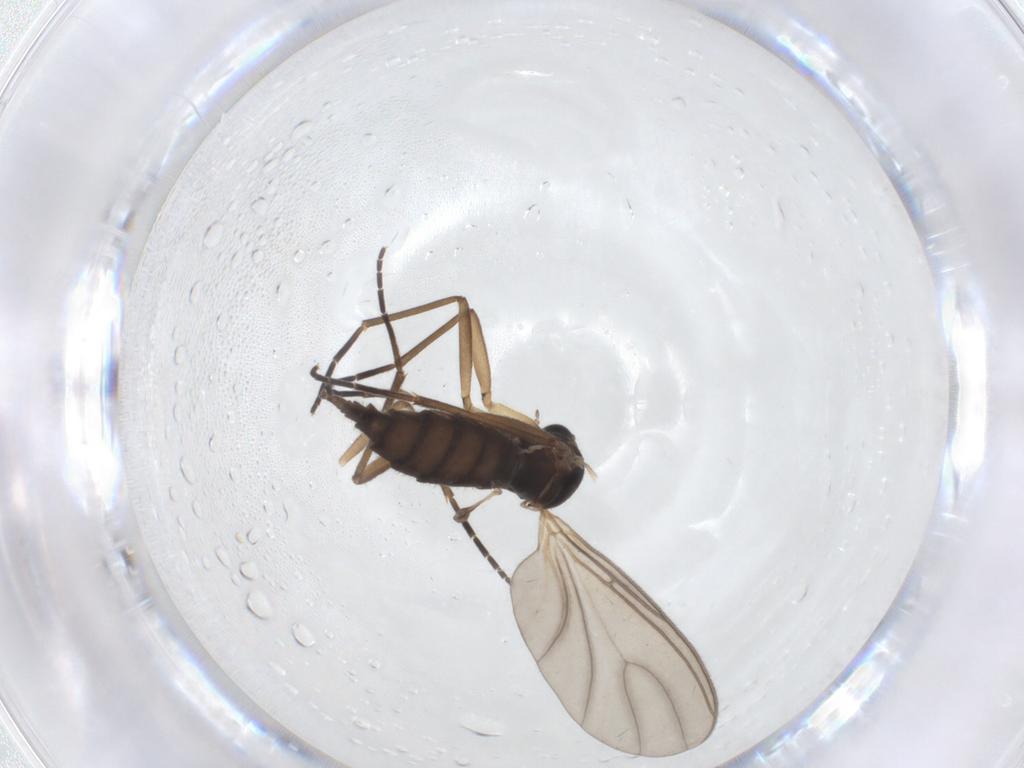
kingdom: Animalia
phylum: Arthropoda
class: Insecta
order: Diptera
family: Sciaridae
